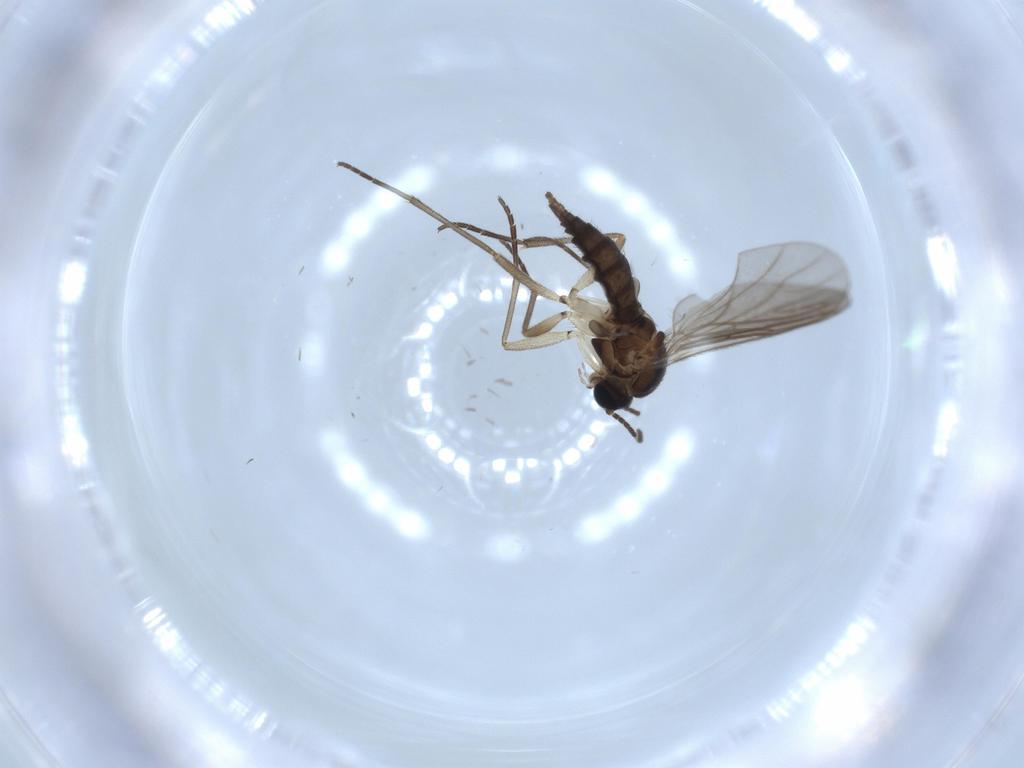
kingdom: Animalia
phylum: Arthropoda
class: Insecta
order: Diptera
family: Sciaridae
